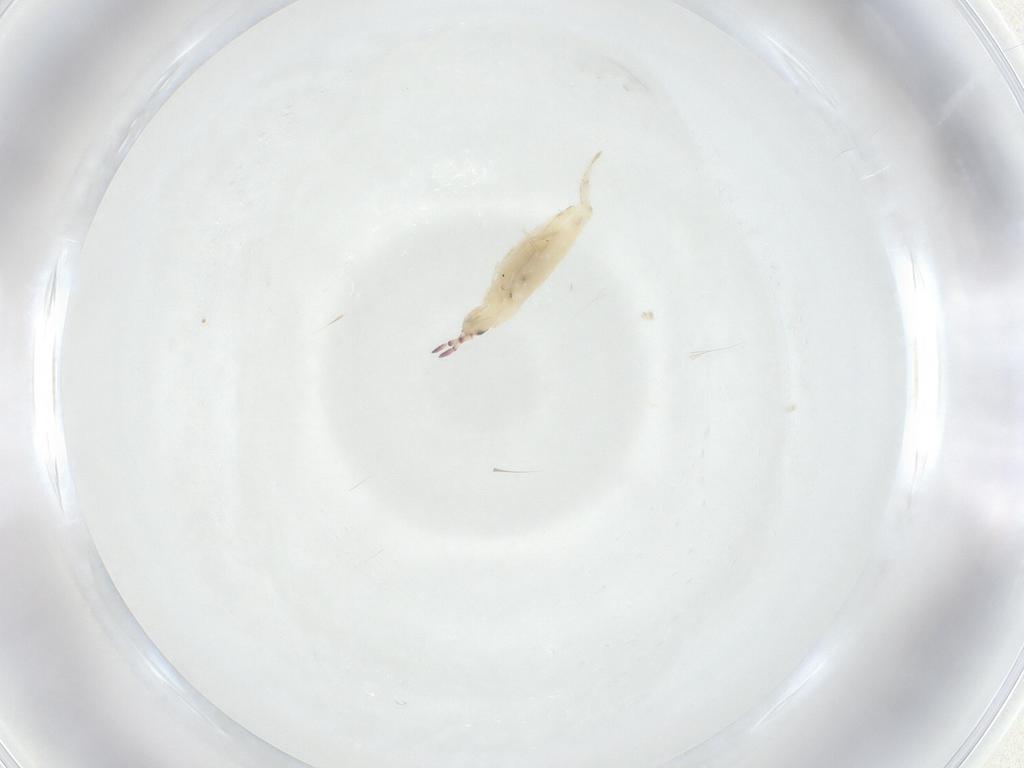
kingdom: Animalia
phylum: Arthropoda
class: Collembola
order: Entomobryomorpha
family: Entomobryidae
